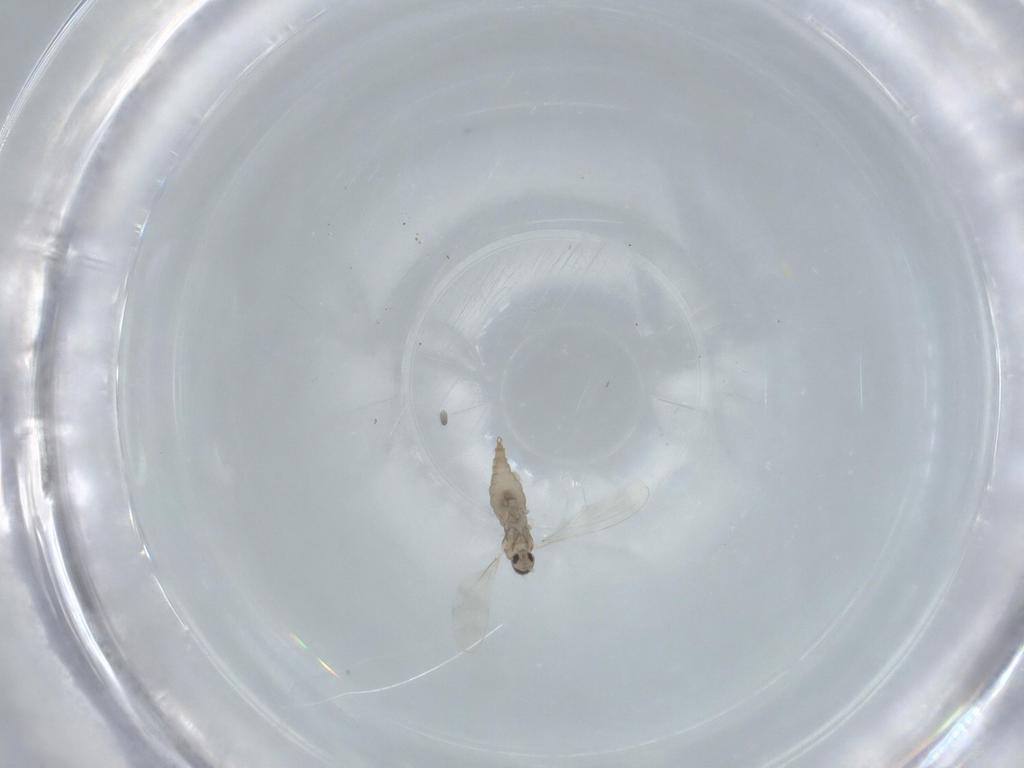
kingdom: Animalia
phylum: Arthropoda
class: Insecta
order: Diptera
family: Cecidomyiidae
